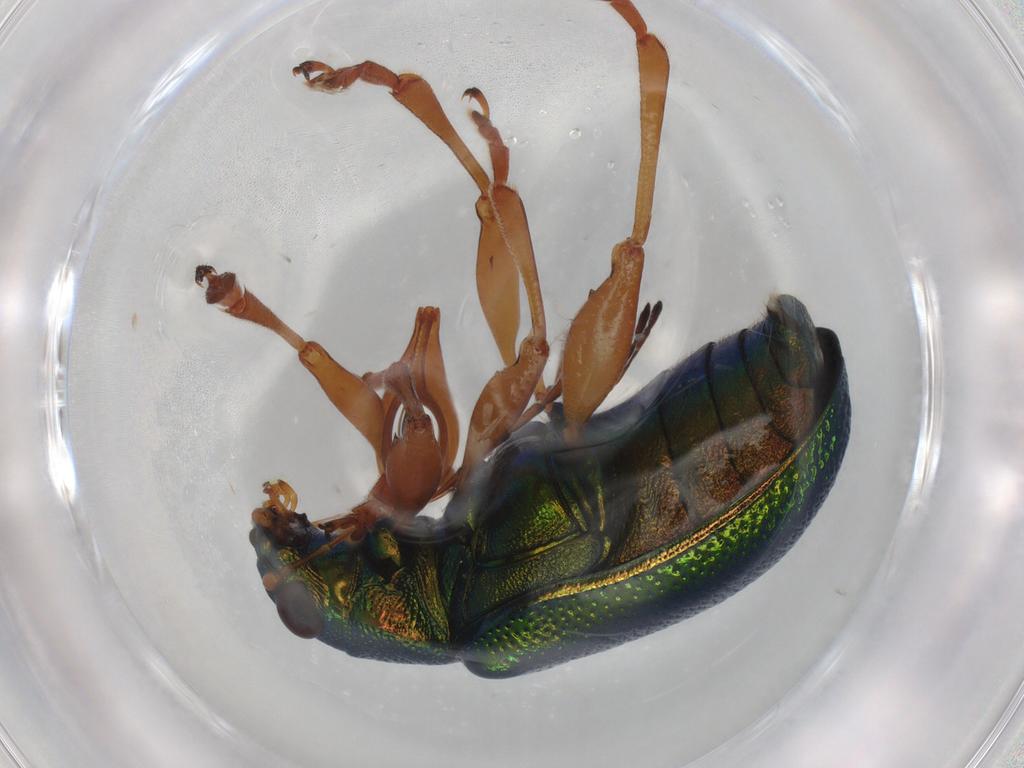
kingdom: Animalia
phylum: Arthropoda
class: Insecta
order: Coleoptera
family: Chrysomelidae
